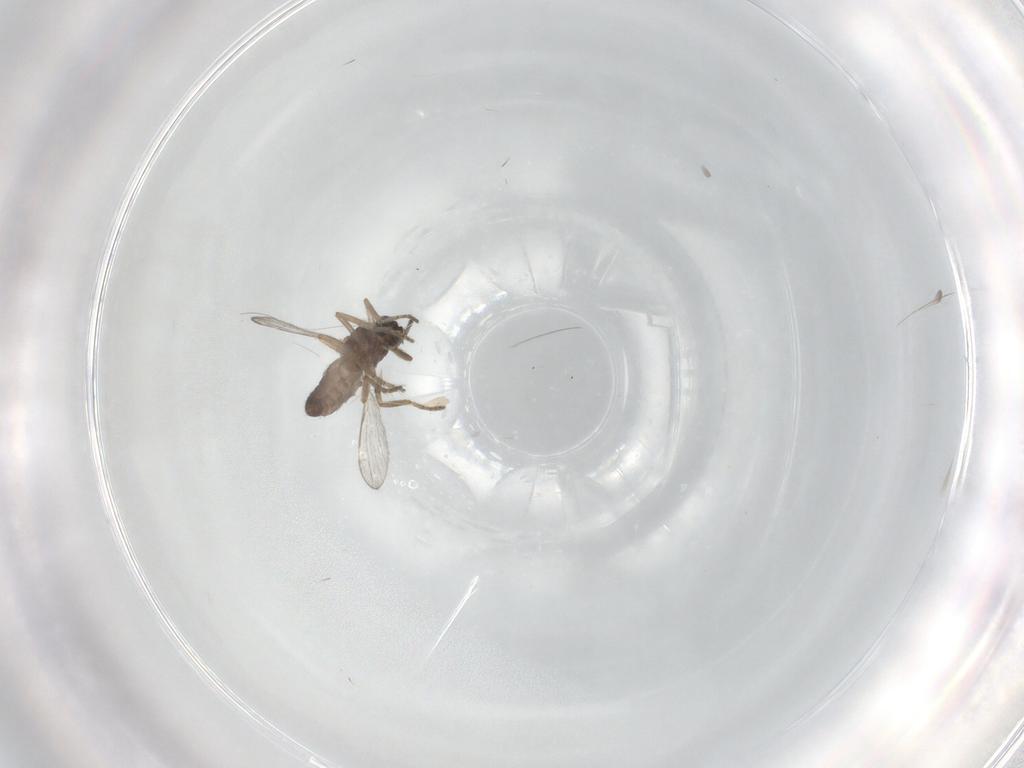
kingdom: Animalia
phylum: Arthropoda
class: Insecta
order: Diptera
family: Ceratopogonidae
